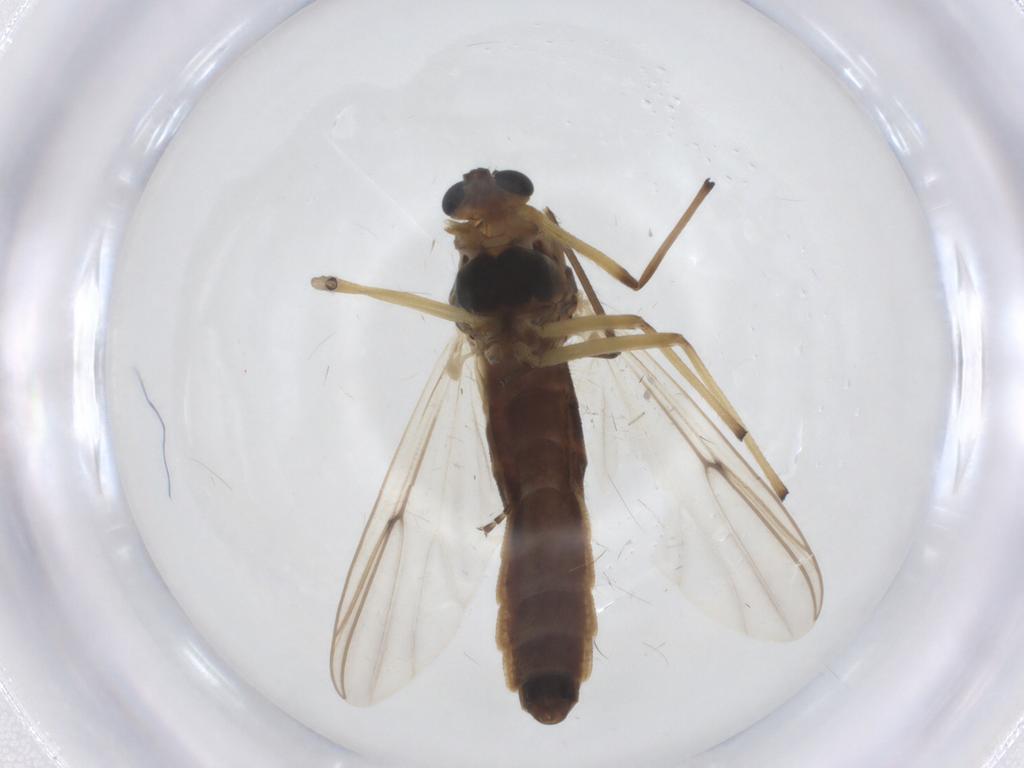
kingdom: Animalia
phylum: Arthropoda
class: Insecta
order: Diptera
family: Chironomidae
